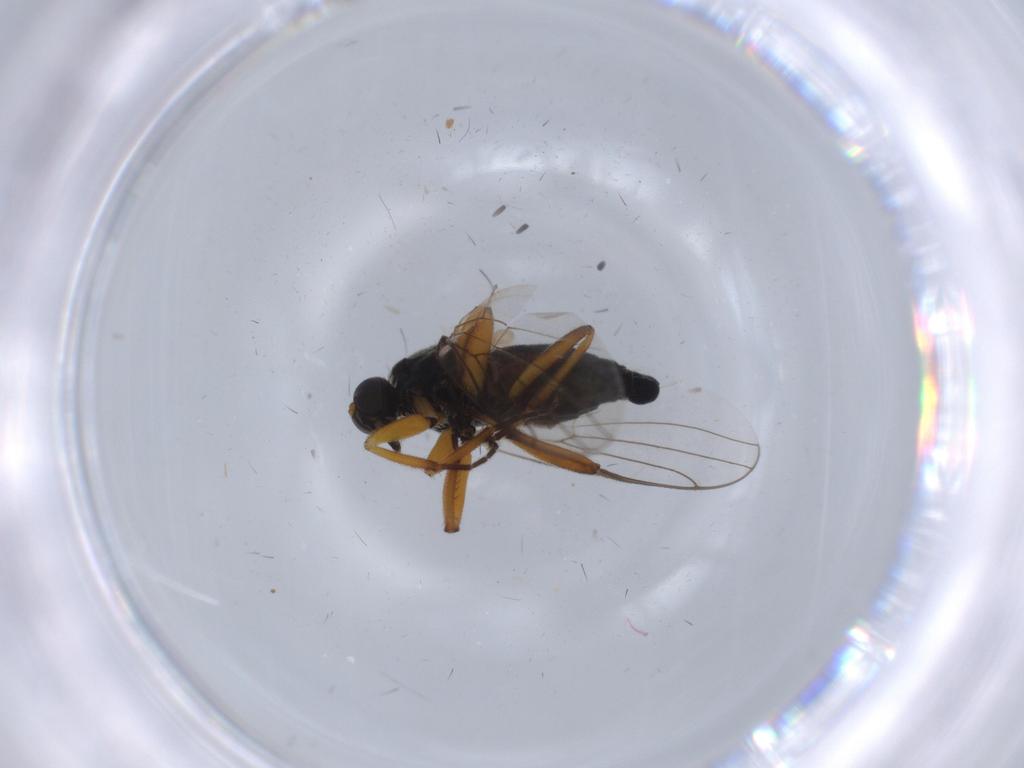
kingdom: Animalia
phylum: Arthropoda
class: Insecta
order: Diptera
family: Hybotidae
